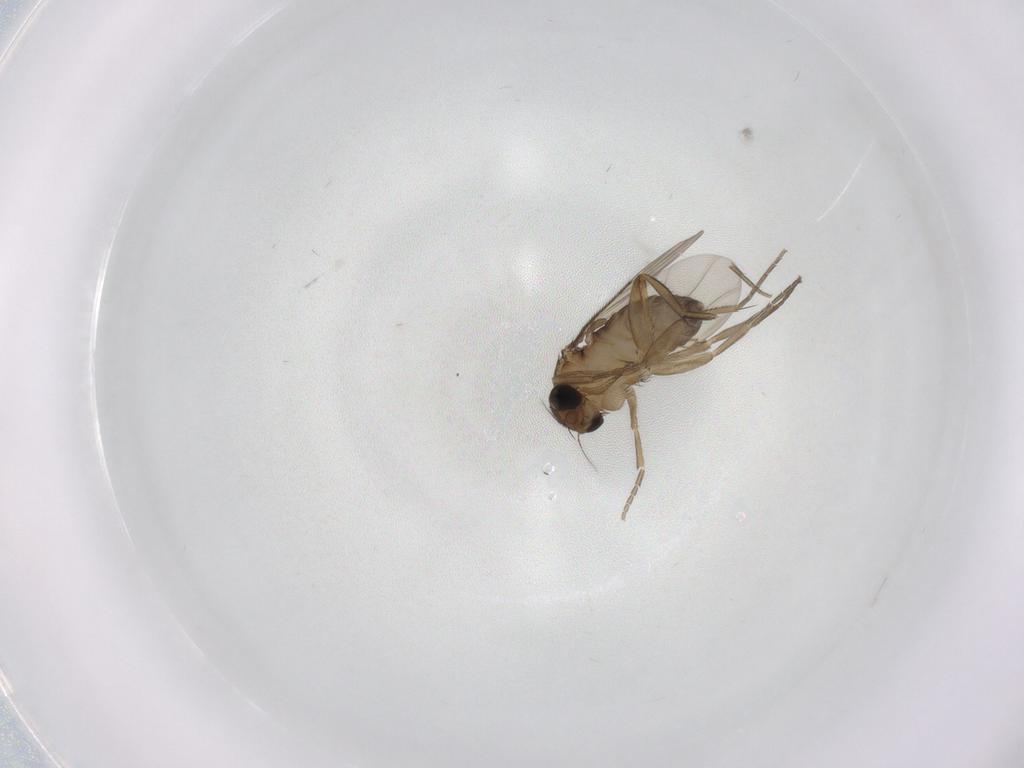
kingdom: Animalia
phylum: Arthropoda
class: Insecta
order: Diptera
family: Phoridae
